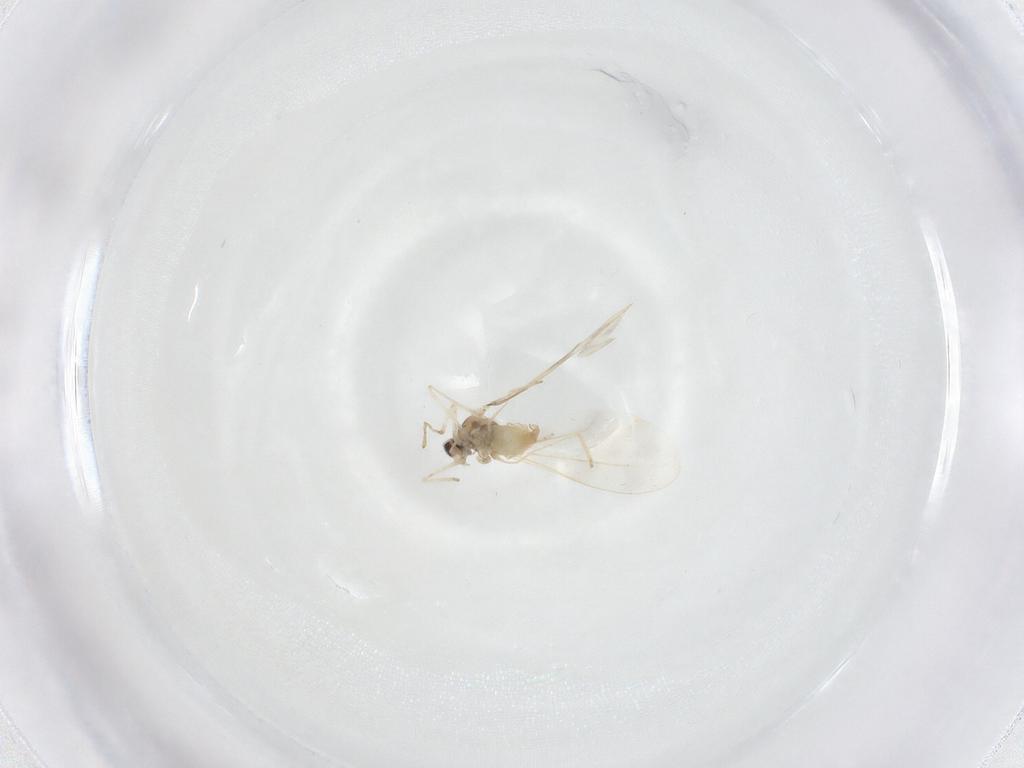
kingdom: Animalia
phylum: Arthropoda
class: Insecta
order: Diptera
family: Cecidomyiidae
